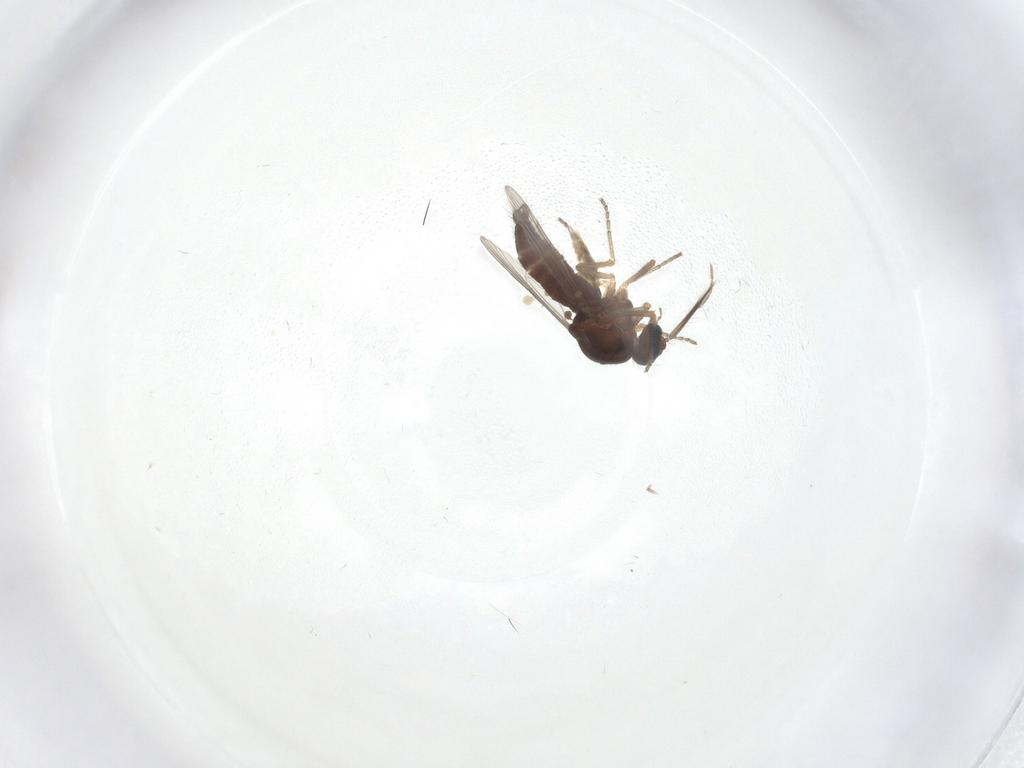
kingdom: Animalia
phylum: Arthropoda
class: Insecta
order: Diptera
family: Ceratopogonidae
